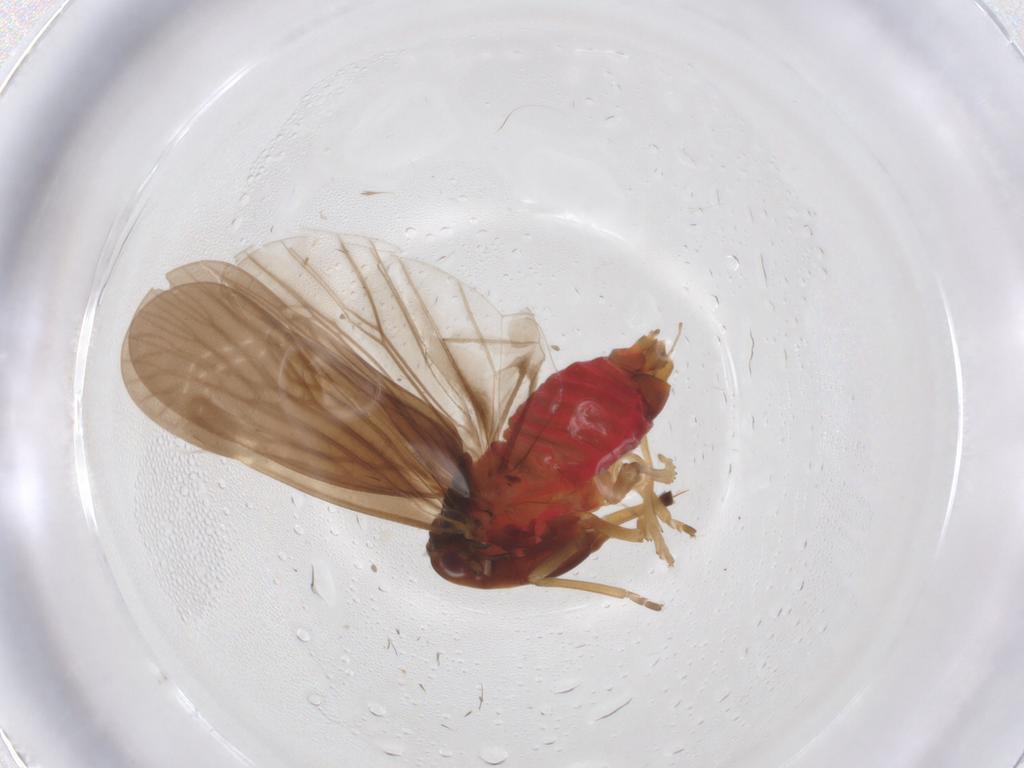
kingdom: Animalia
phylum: Arthropoda
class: Insecta
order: Hemiptera
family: Derbidae
